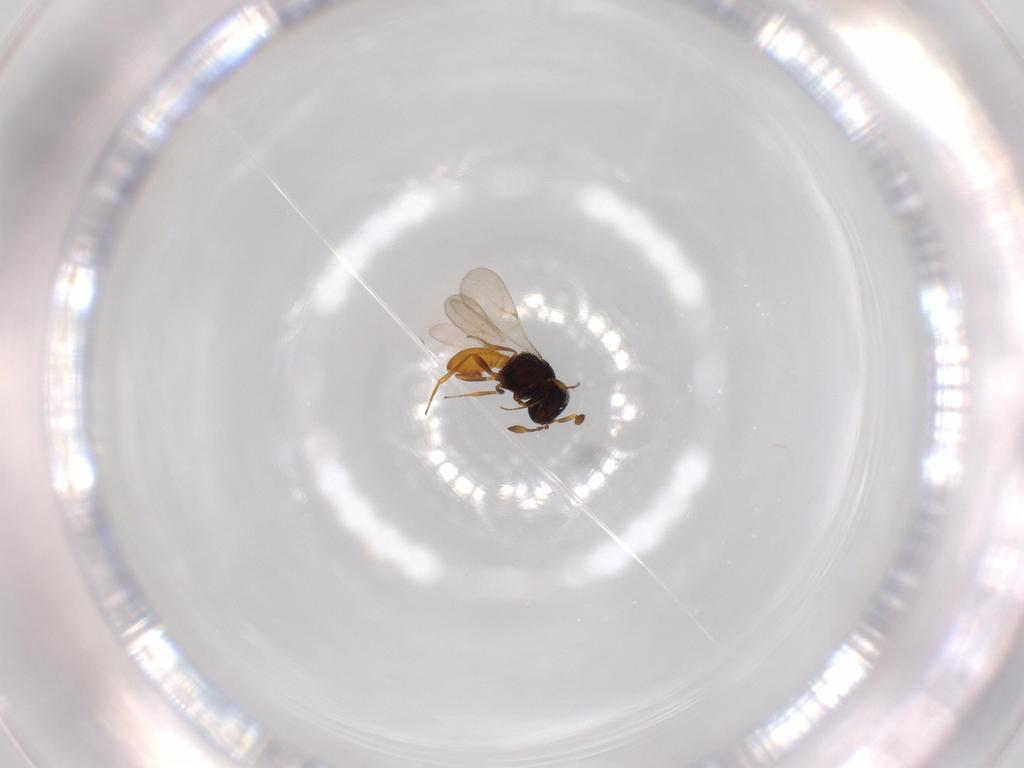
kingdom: Animalia
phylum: Arthropoda
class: Insecta
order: Hymenoptera
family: Scelionidae
